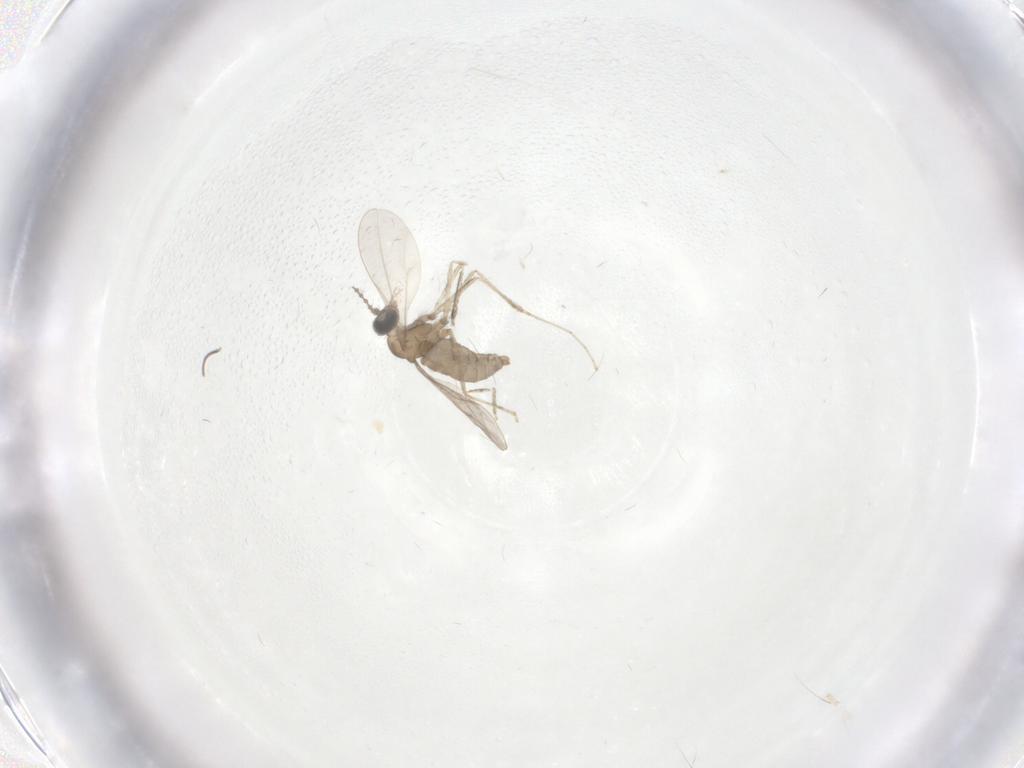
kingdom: Animalia
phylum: Arthropoda
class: Insecta
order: Diptera
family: Cecidomyiidae
